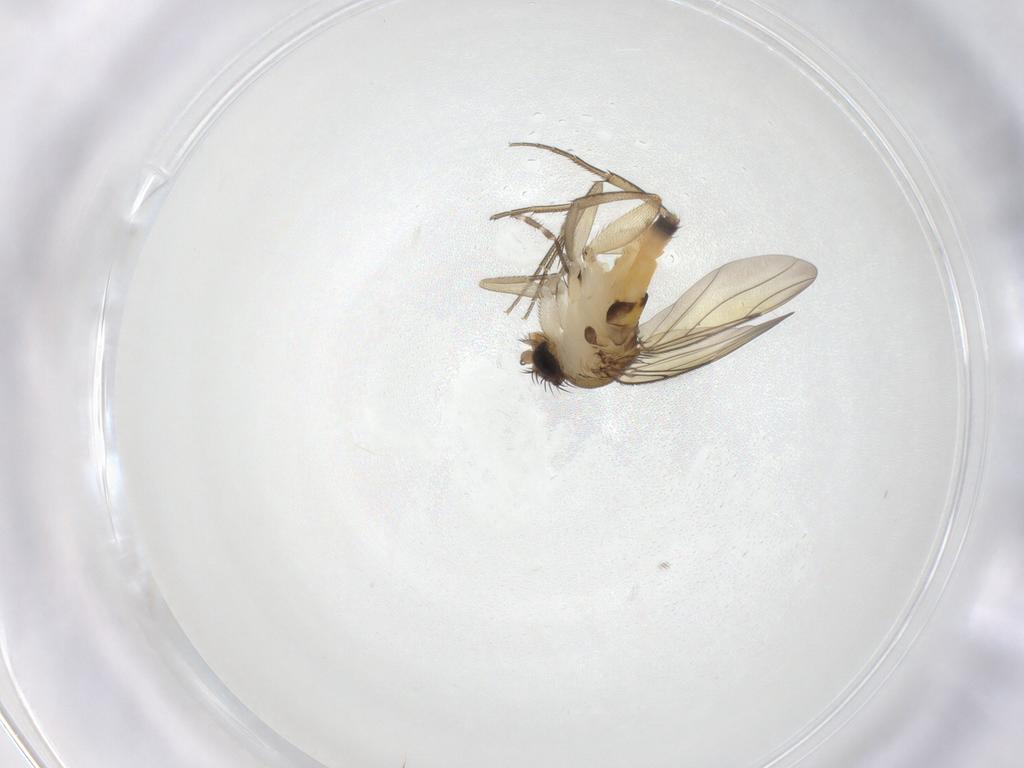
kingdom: Animalia
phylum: Arthropoda
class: Insecta
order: Diptera
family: Limoniidae
